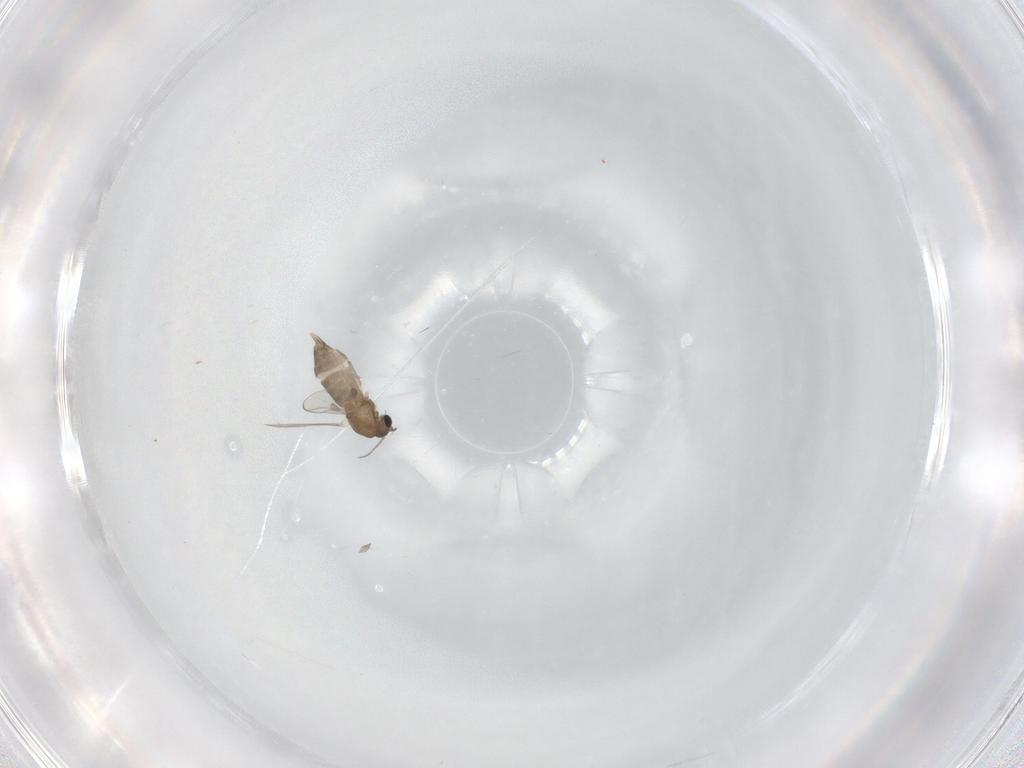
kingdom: Animalia
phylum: Arthropoda
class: Insecta
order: Diptera
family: Chironomidae
